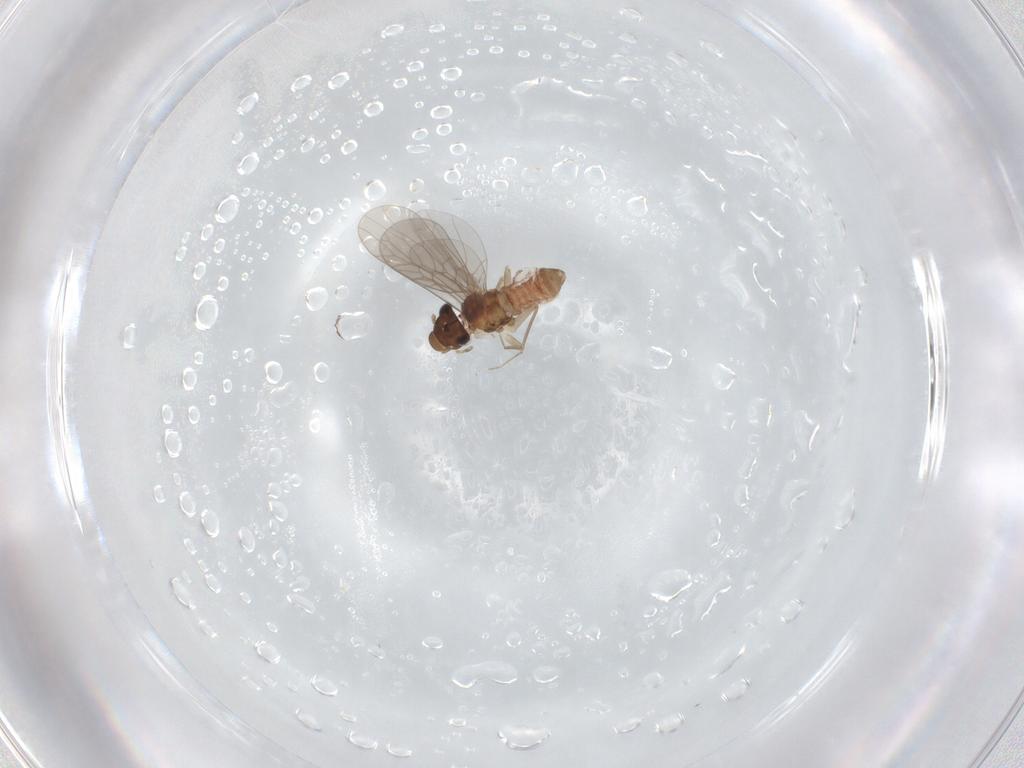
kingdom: Animalia
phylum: Arthropoda
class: Insecta
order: Psocodea
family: Lepidopsocidae
